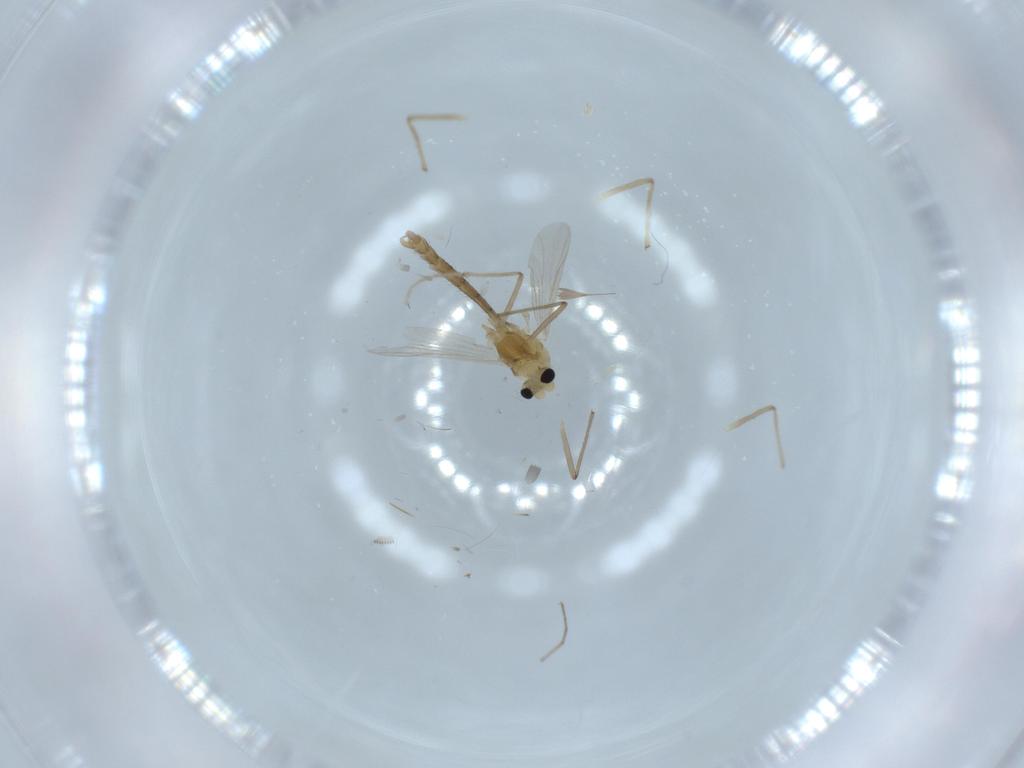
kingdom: Animalia
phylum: Arthropoda
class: Insecta
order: Diptera
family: Chironomidae
